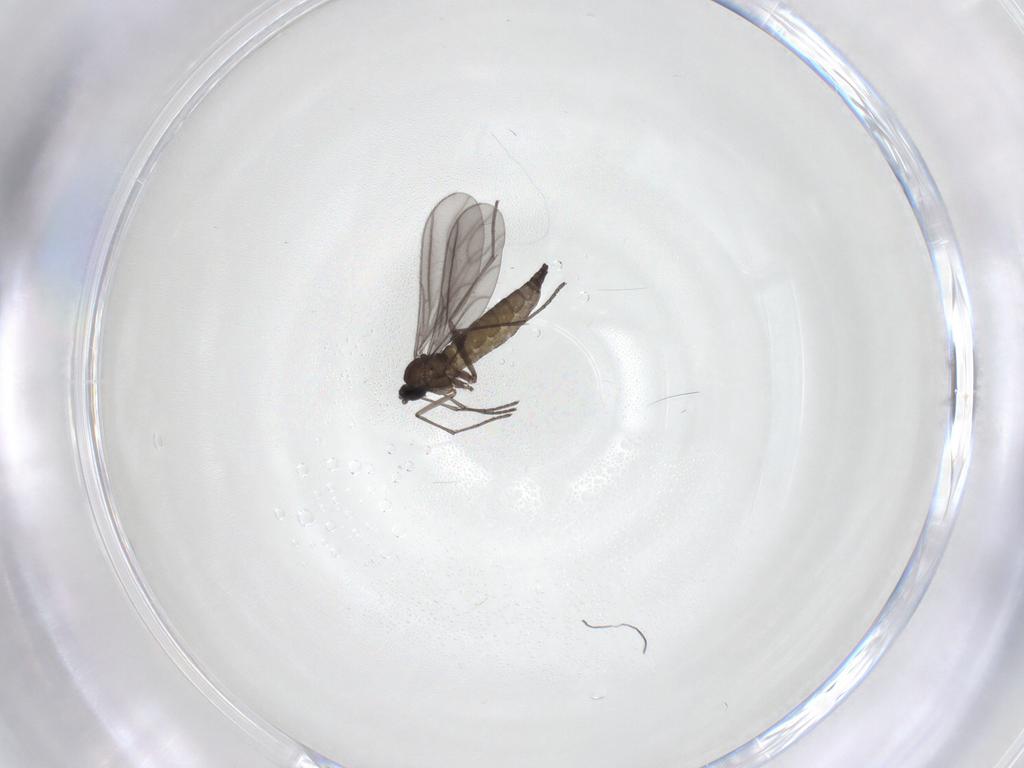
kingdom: Animalia
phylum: Arthropoda
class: Insecta
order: Diptera
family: Sciaridae
